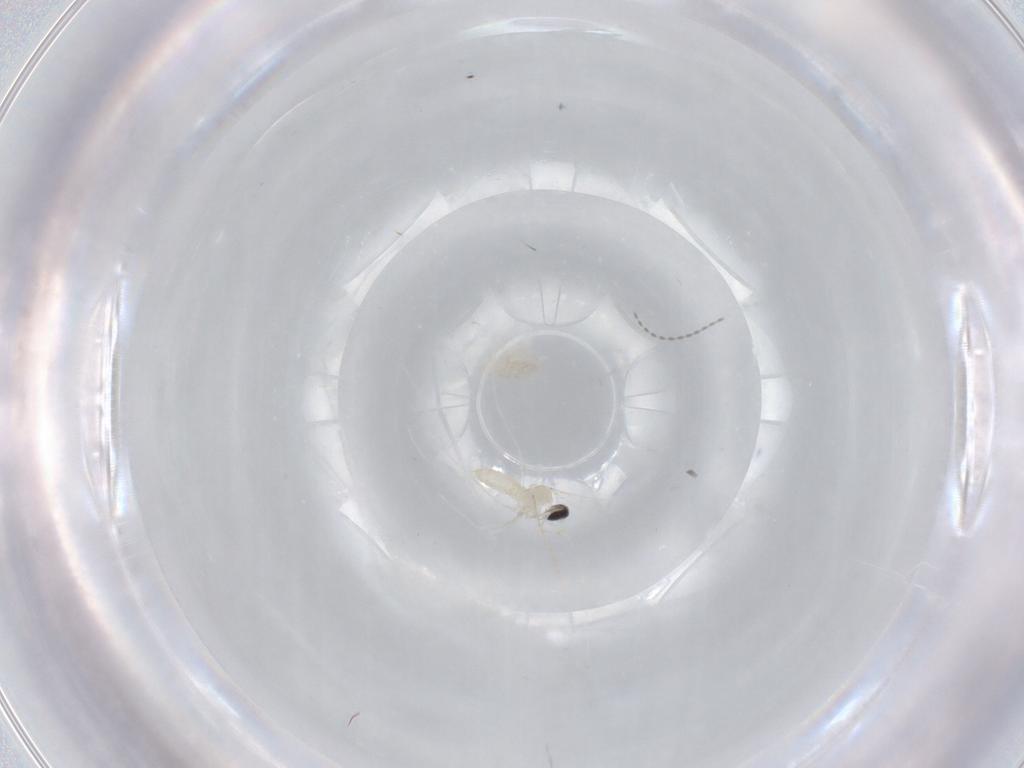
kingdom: Animalia
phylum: Arthropoda
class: Insecta
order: Diptera
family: Cecidomyiidae
